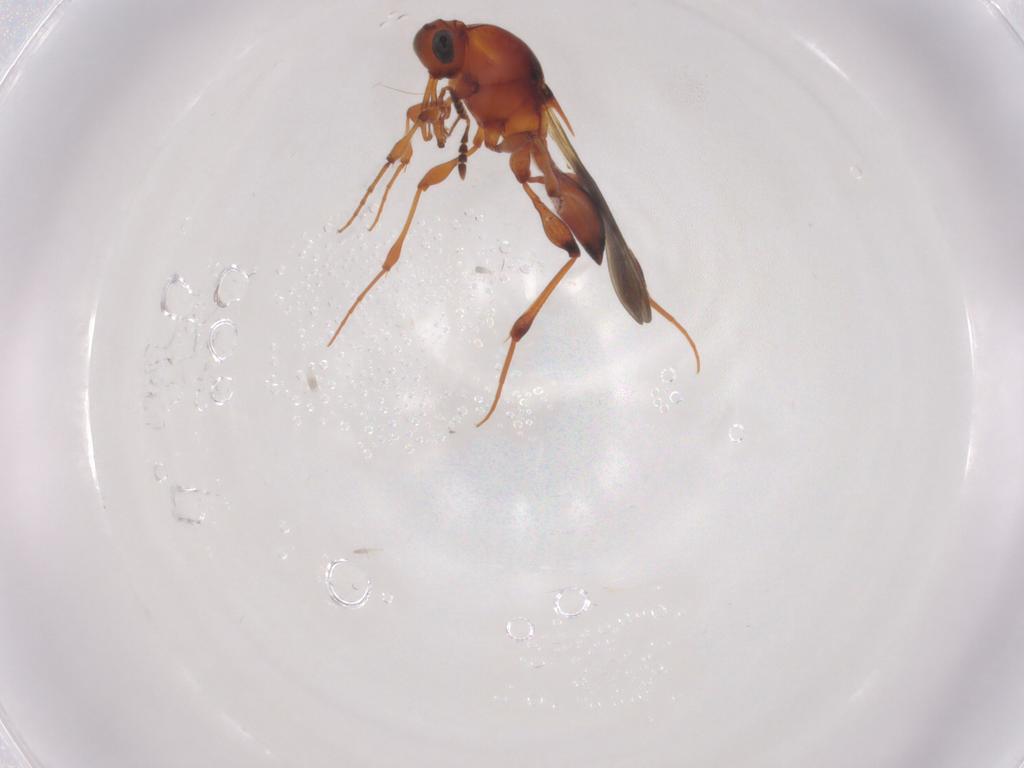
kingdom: Animalia
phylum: Arthropoda
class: Insecta
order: Hymenoptera
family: Platygastridae
